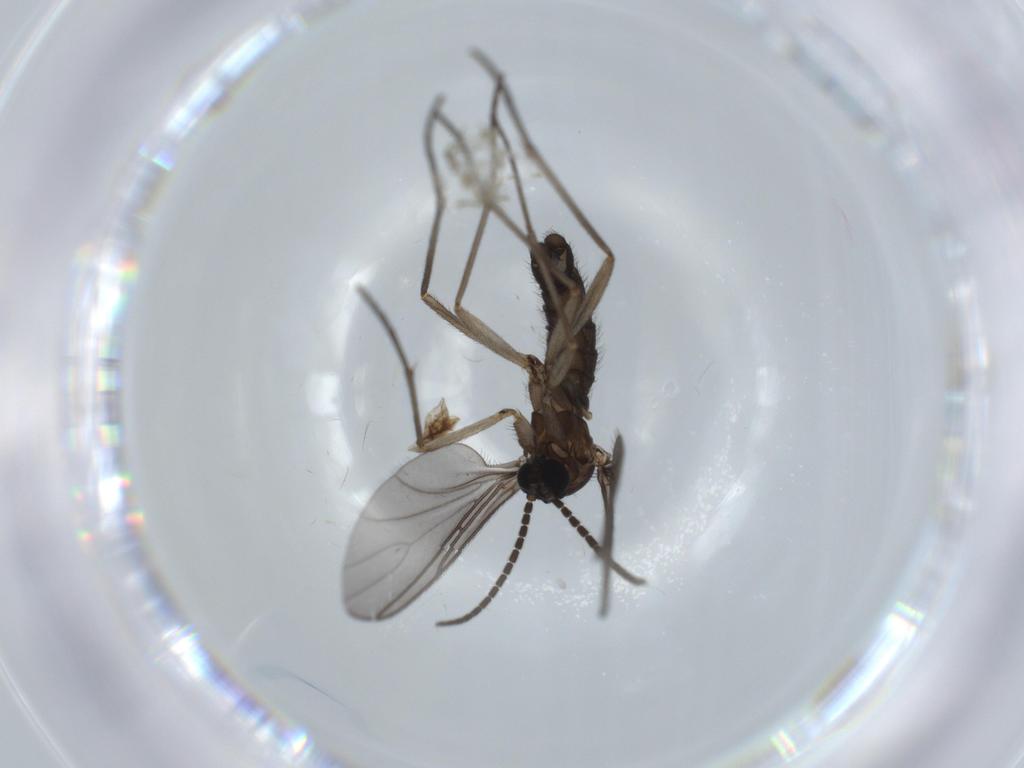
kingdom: Animalia
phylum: Arthropoda
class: Insecta
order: Diptera
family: Sciaridae
